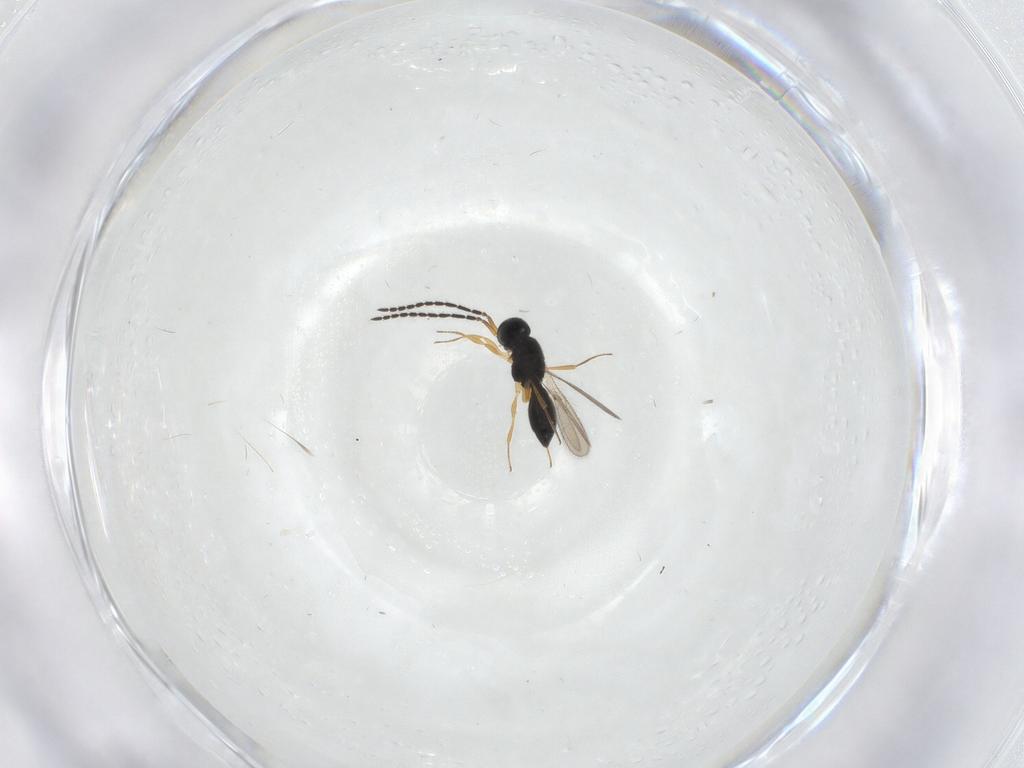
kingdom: Animalia
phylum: Arthropoda
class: Insecta
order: Hymenoptera
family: Scelionidae
